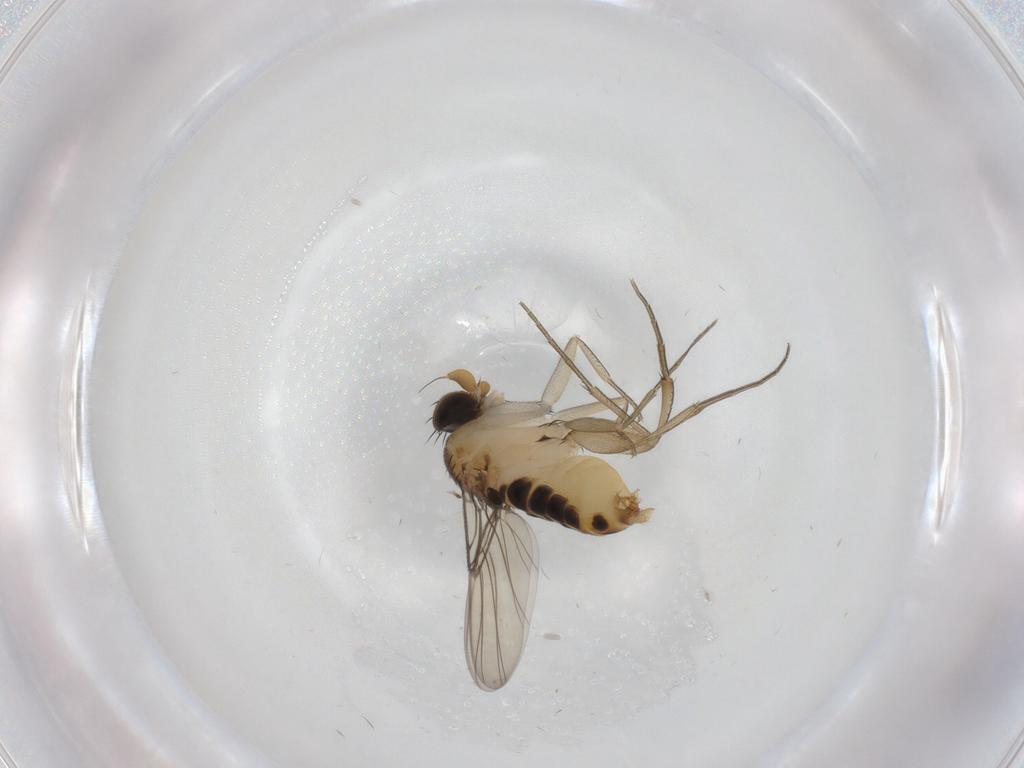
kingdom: Animalia
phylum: Arthropoda
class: Insecta
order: Diptera
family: Phoridae
